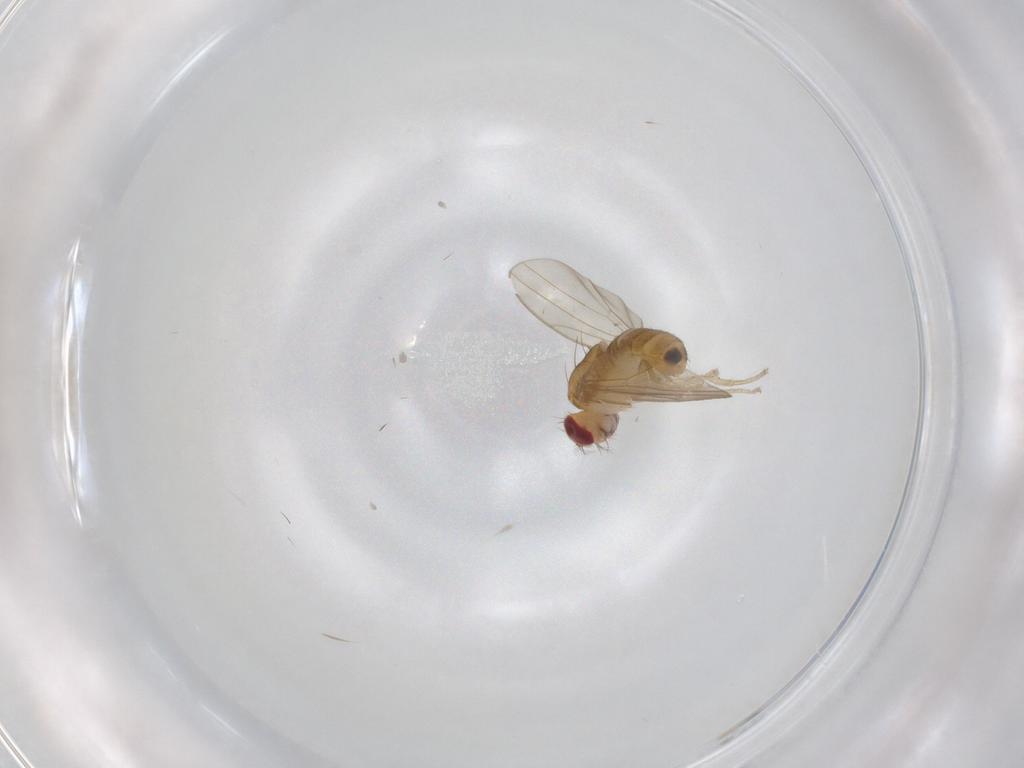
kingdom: Animalia
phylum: Arthropoda
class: Insecta
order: Diptera
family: Drosophilidae
